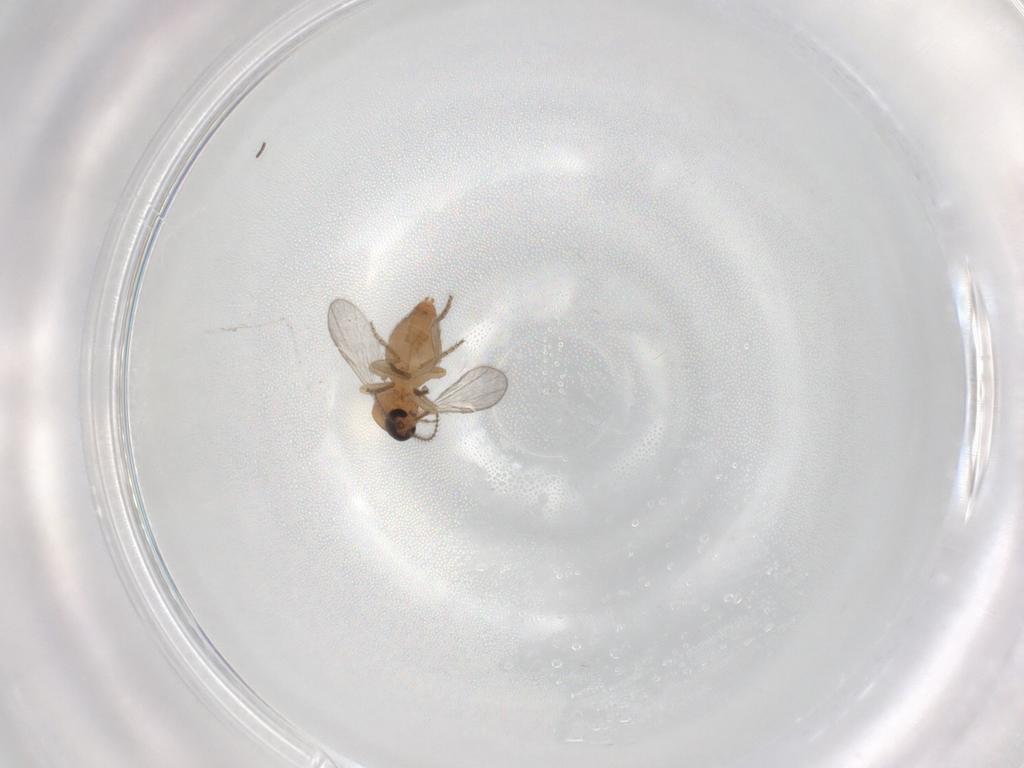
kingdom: Animalia
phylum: Arthropoda
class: Insecta
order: Diptera
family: Ceratopogonidae
